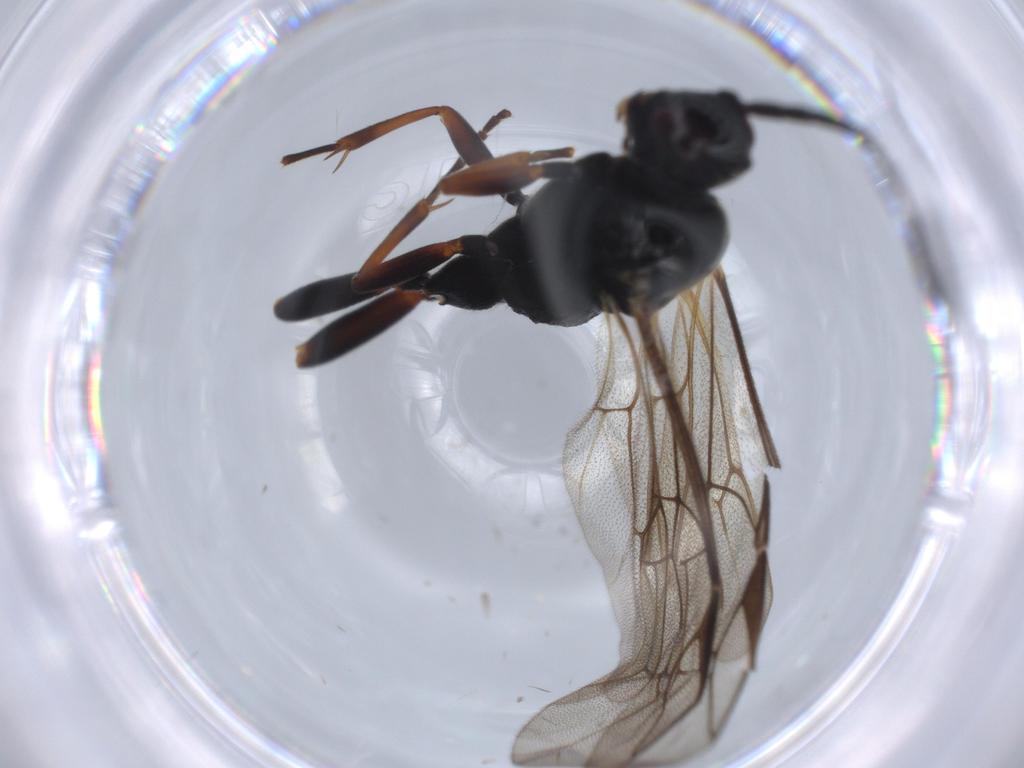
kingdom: Animalia
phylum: Arthropoda
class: Insecta
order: Hymenoptera
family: Ichneumonidae
